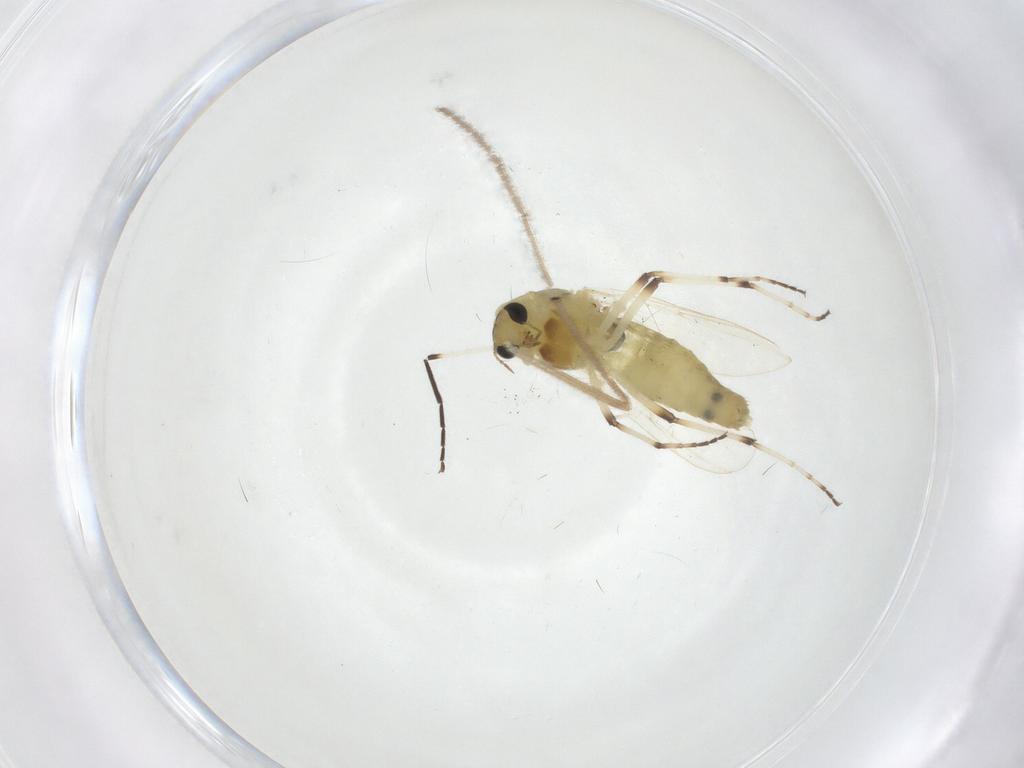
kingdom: Animalia
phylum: Arthropoda
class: Insecta
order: Diptera
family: Chironomidae
